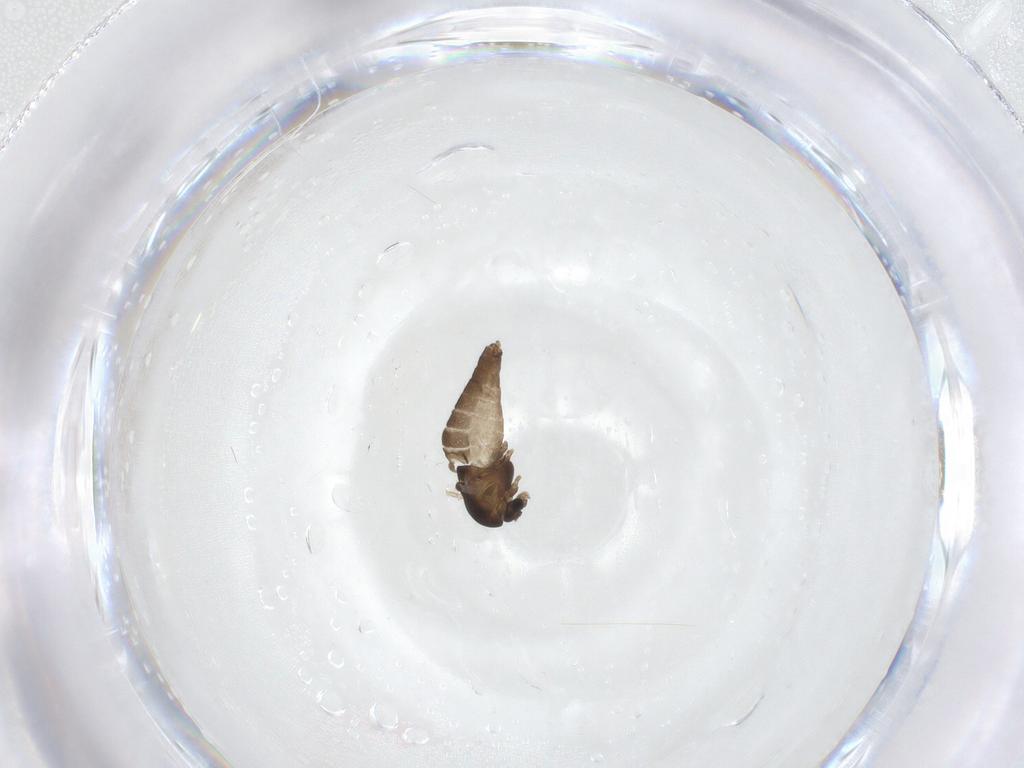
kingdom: Animalia
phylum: Arthropoda
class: Insecta
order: Diptera
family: Chironomidae
